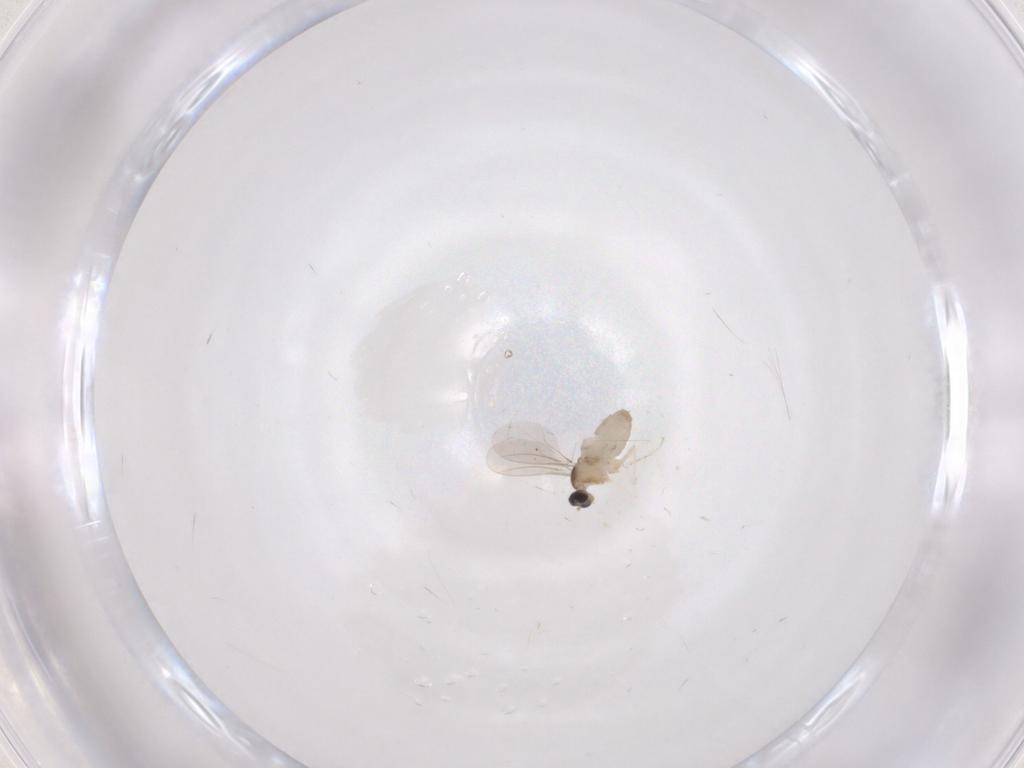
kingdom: Animalia
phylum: Arthropoda
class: Insecta
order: Diptera
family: Cecidomyiidae
